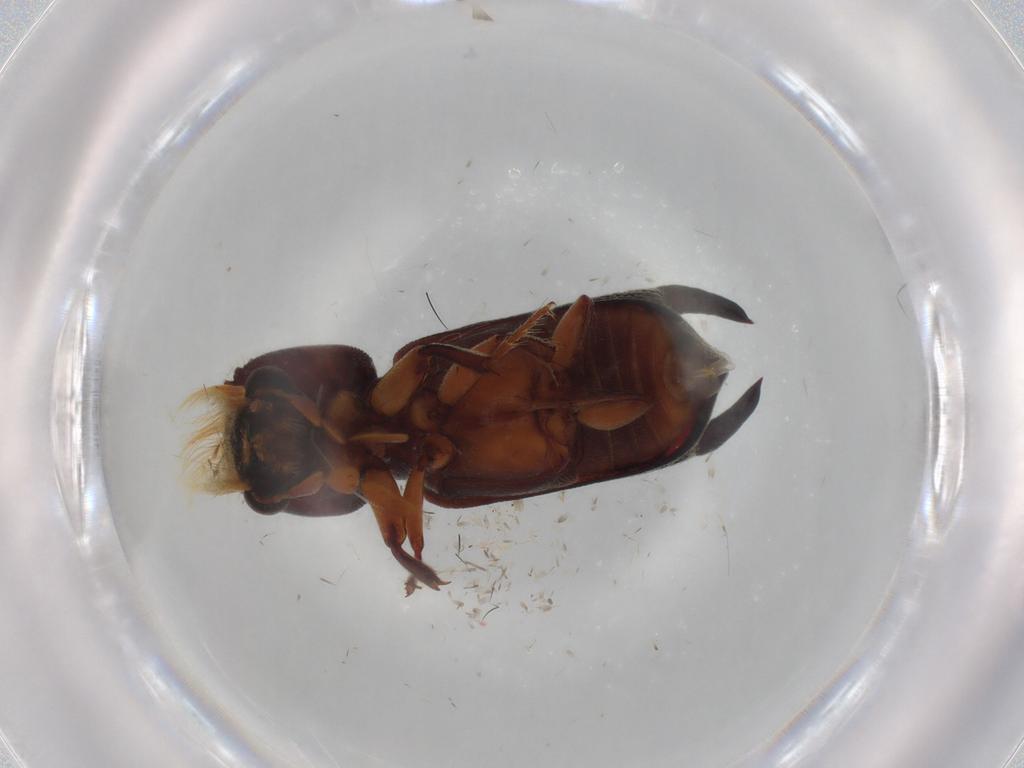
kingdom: Animalia
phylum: Arthropoda
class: Insecta
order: Coleoptera
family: Bostrichidae
